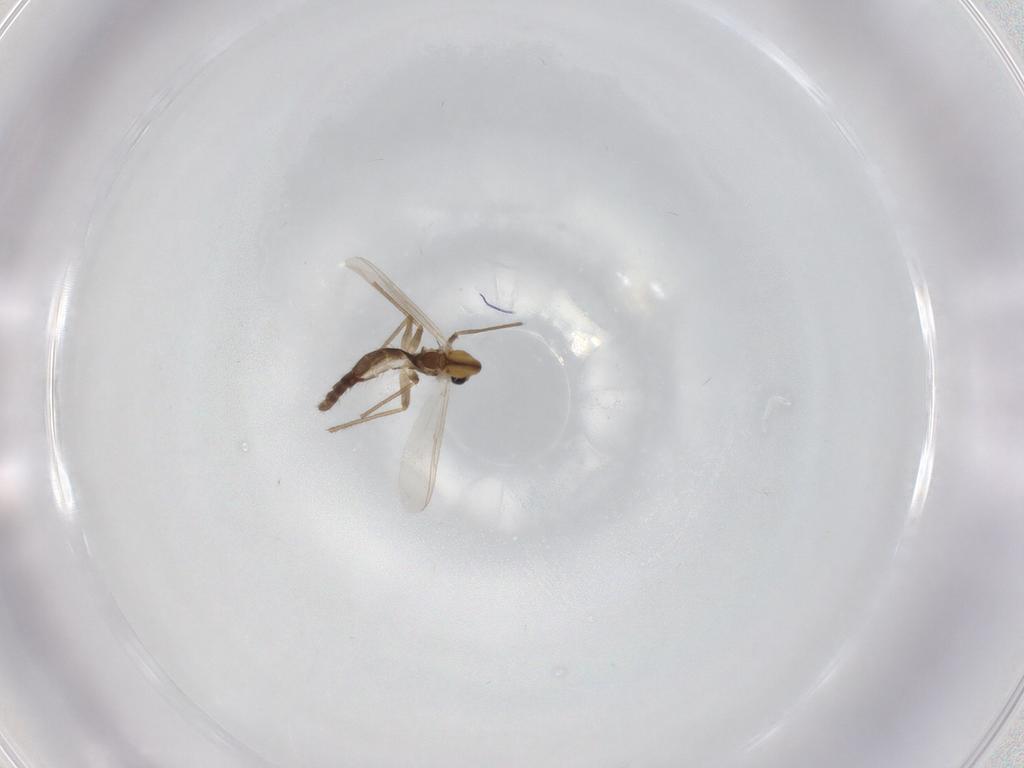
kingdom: Animalia
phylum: Arthropoda
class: Insecta
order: Diptera
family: Chironomidae
